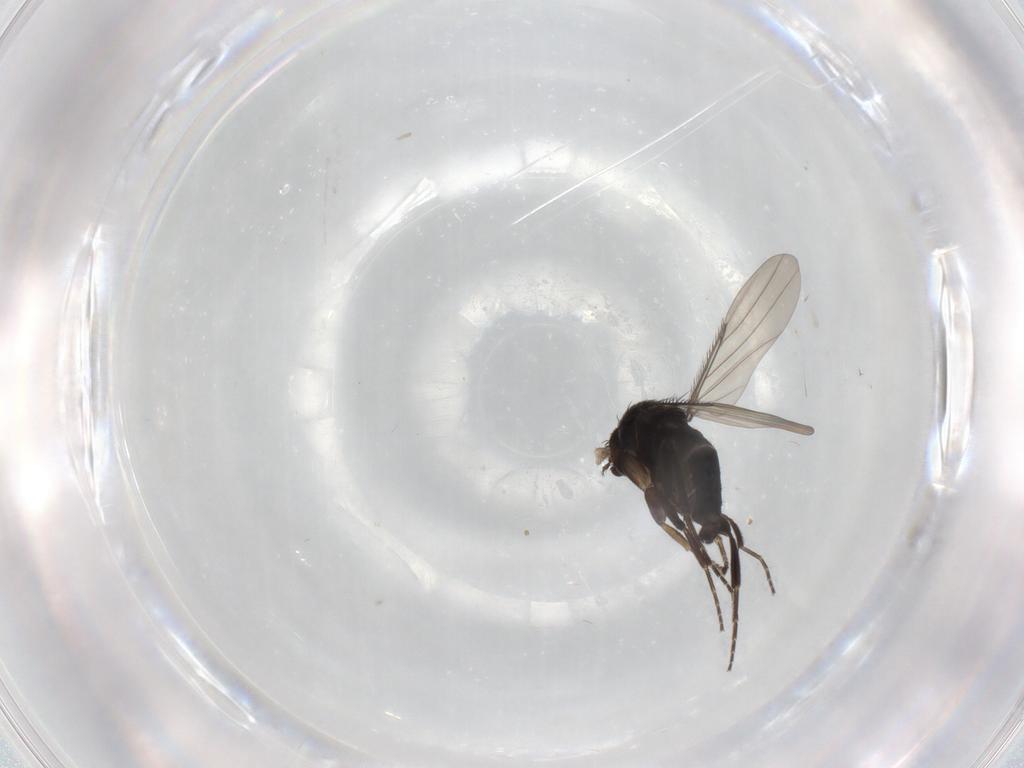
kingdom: Animalia
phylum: Arthropoda
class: Insecta
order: Diptera
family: Phoridae
